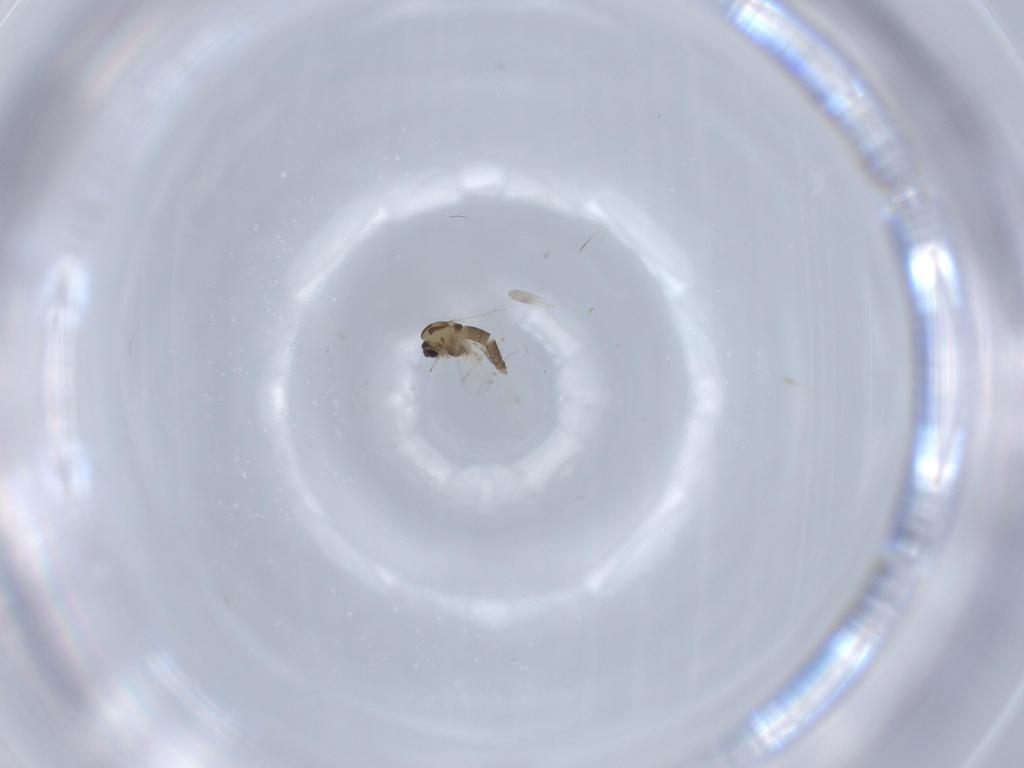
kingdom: Animalia
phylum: Arthropoda
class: Insecta
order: Diptera
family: Chironomidae
